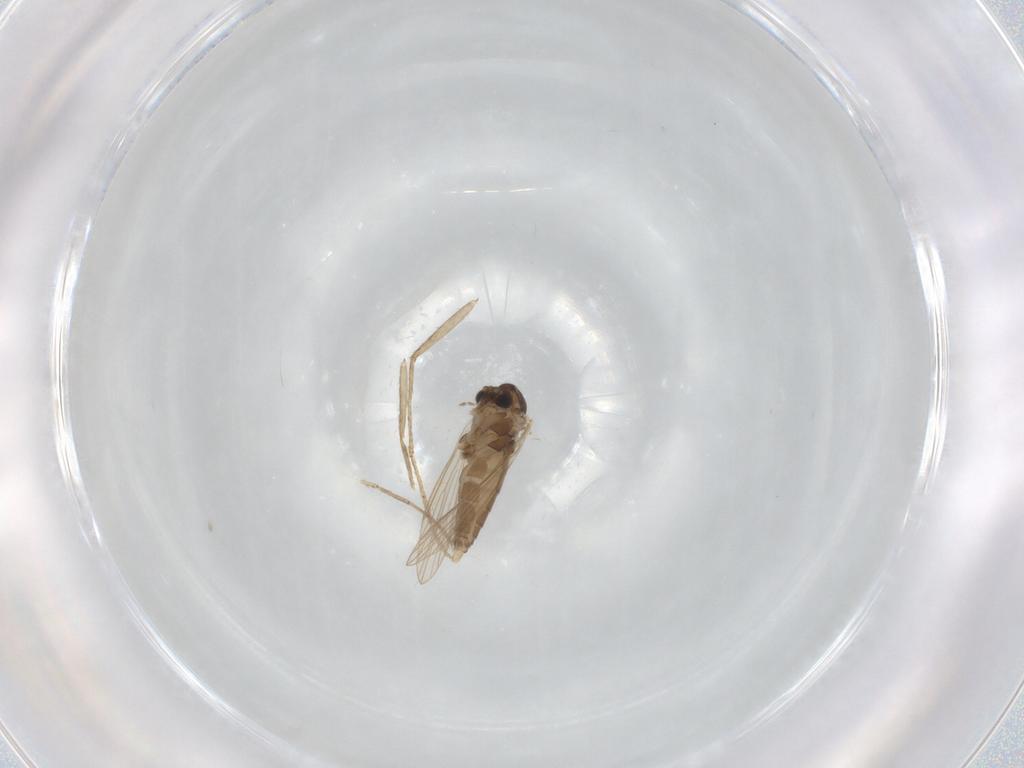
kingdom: Animalia
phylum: Arthropoda
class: Insecta
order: Diptera
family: Psychodidae
